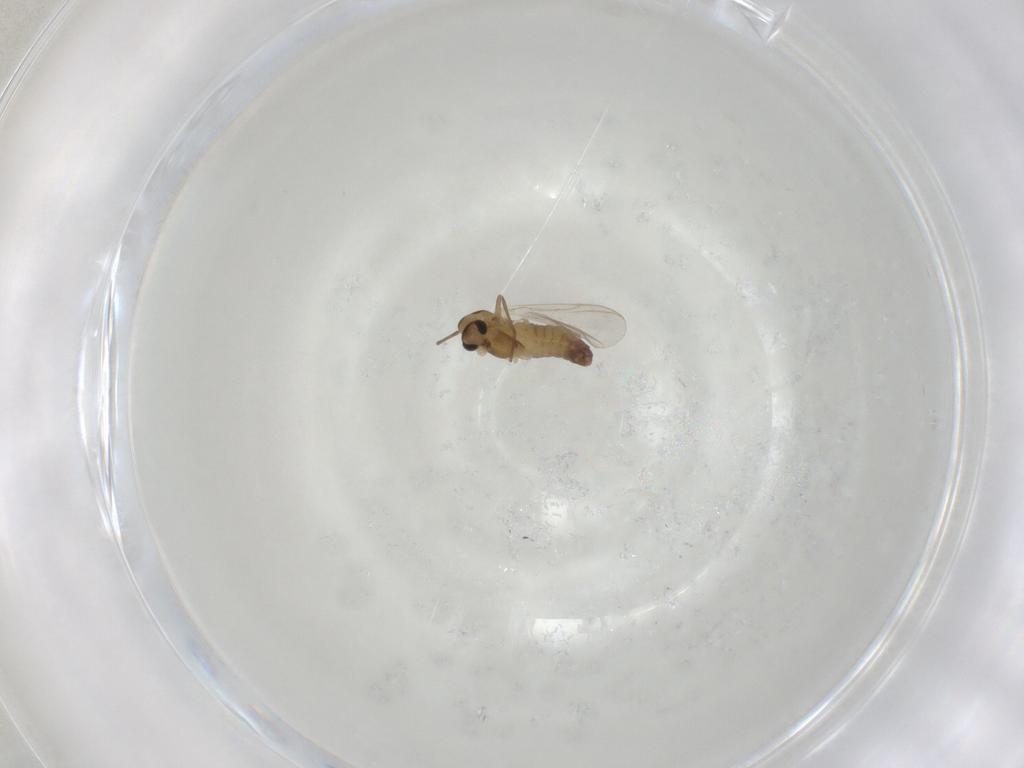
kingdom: Animalia
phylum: Arthropoda
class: Insecta
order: Diptera
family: Chironomidae
